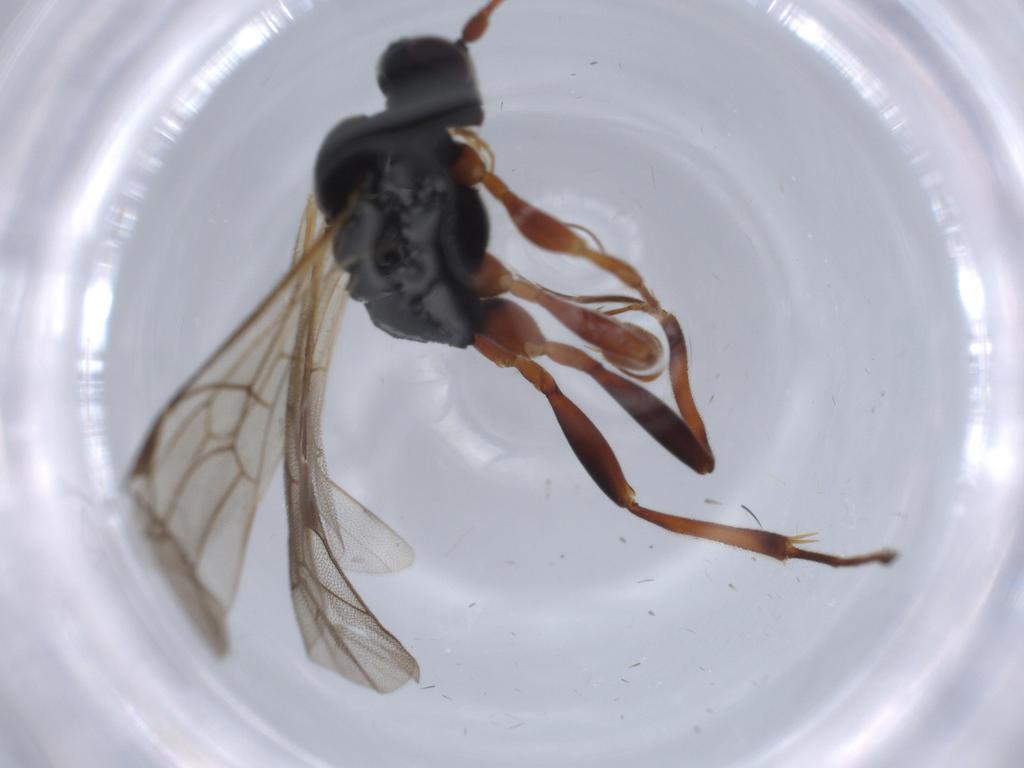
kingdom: Animalia
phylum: Arthropoda
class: Insecta
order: Hymenoptera
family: Ichneumonidae
